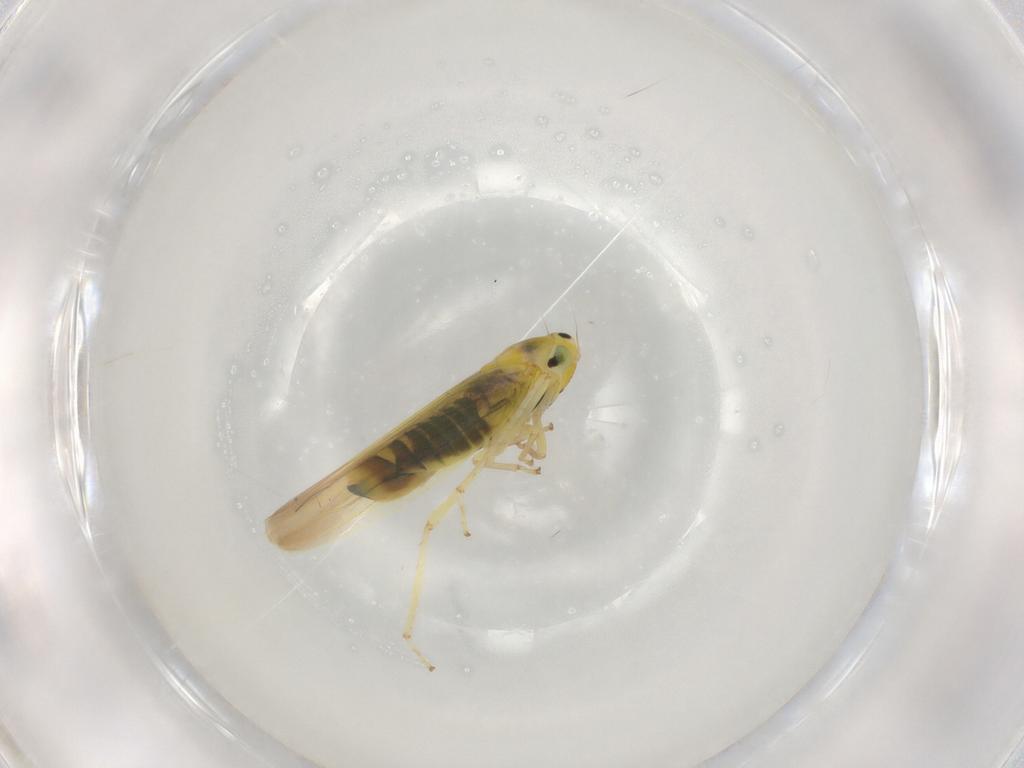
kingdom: Animalia
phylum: Arthropoda
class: Insecta
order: Hemiptera
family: Cicadellidae
